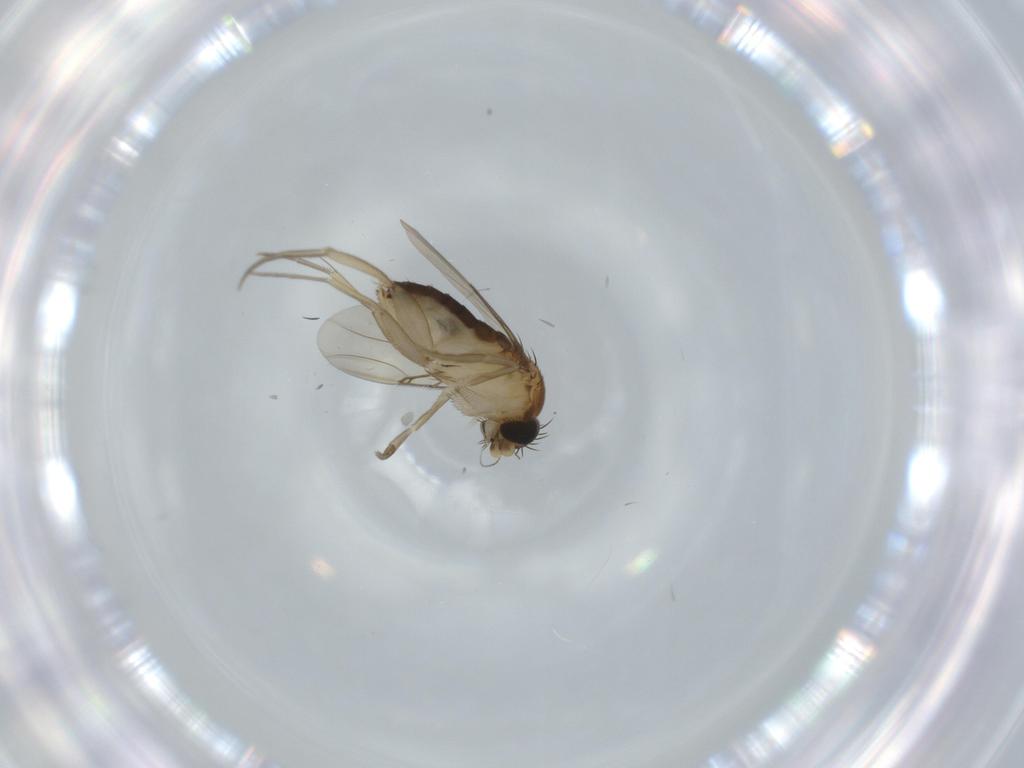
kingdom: Animalia
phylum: Arthropoda
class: Insecta
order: Diptera
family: Phoridae
